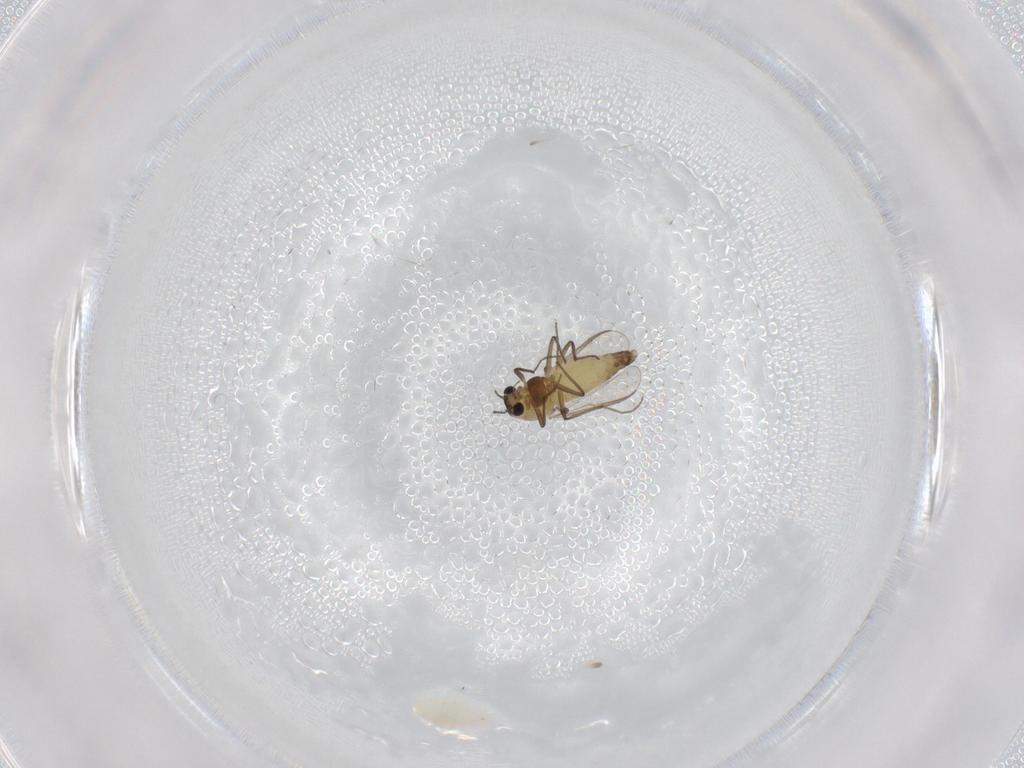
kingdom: Animalia
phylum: Arthropoda
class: Insecta
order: Diptera
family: Chironomidae
